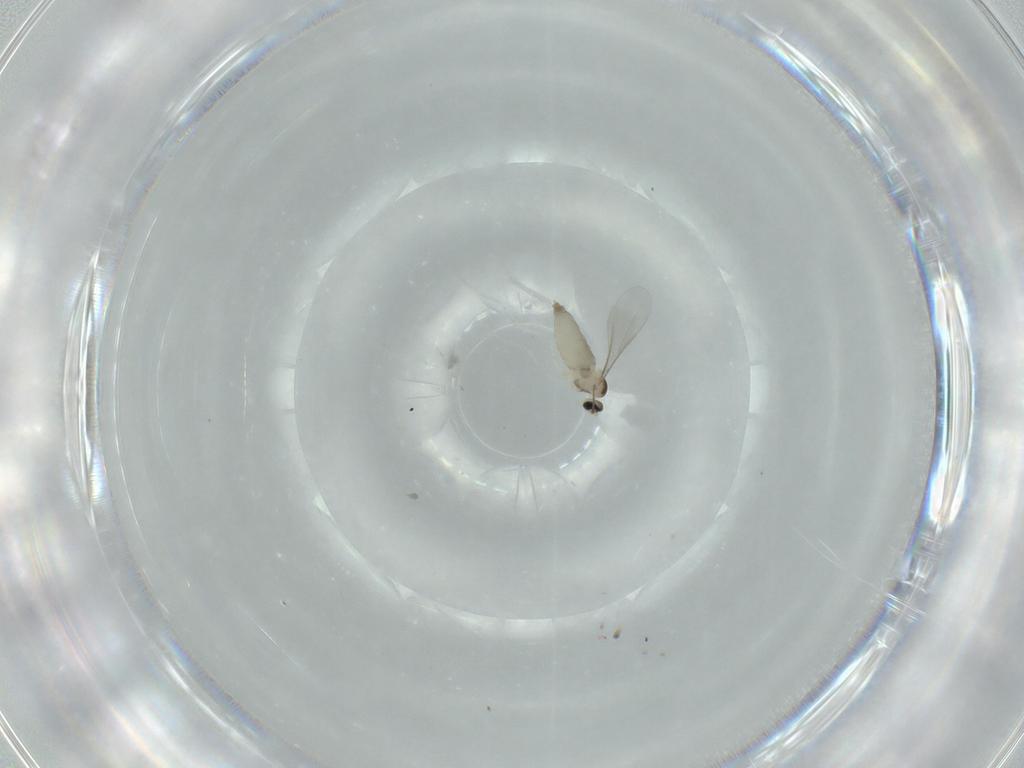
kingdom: Animalia
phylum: Arthropoda
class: Insecta
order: Diptera
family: Milichiidae
